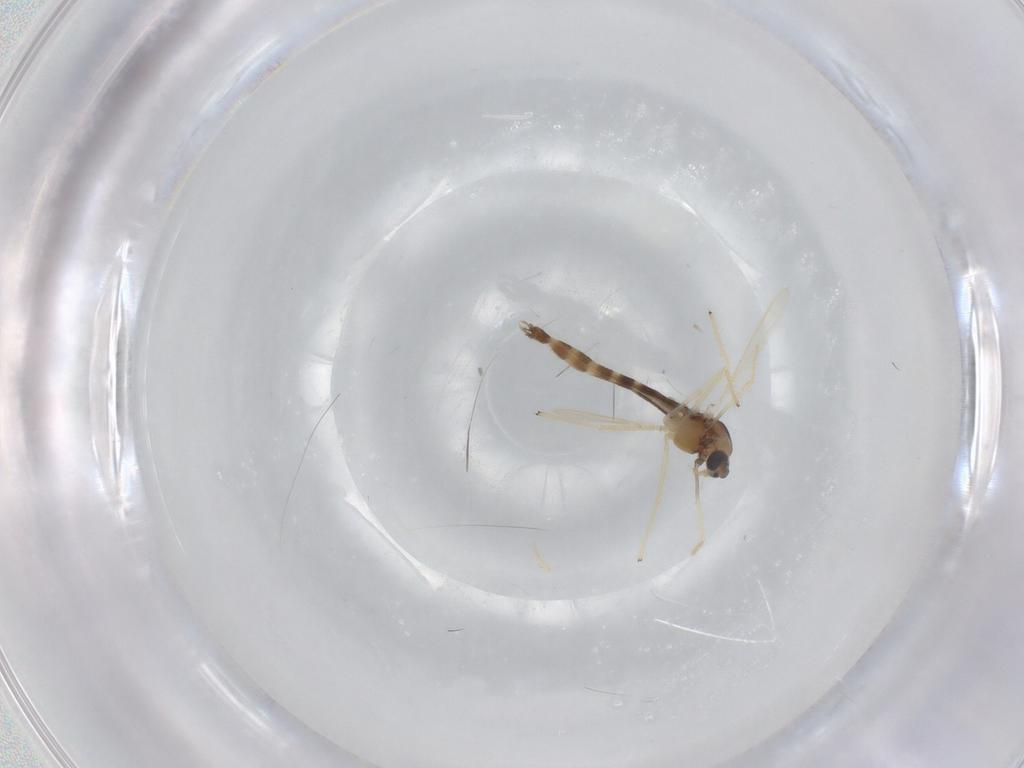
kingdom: Animalia
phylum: Arthropoda
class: Insecta
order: Diptera
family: Chironomidae
